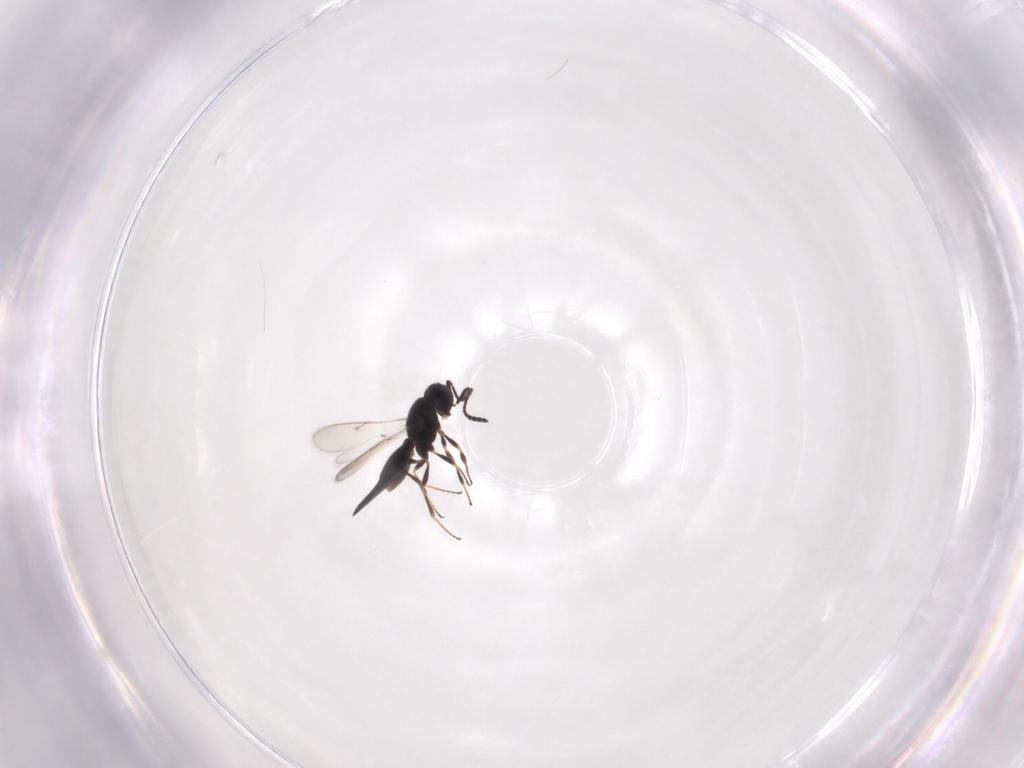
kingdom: Animalia
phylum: Arthropoda
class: Insecta
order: Hymenoptera
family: Scelionidae
